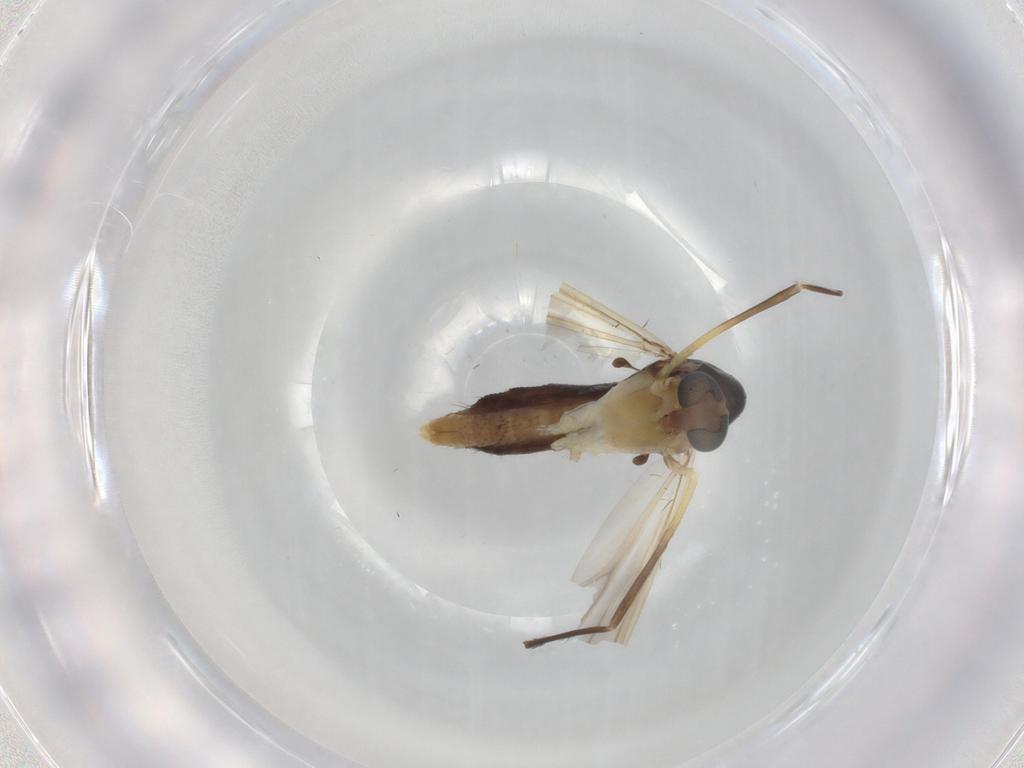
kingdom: Animalia
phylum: Arthropoda
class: Insecta
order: Diptera
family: Chironomidae
